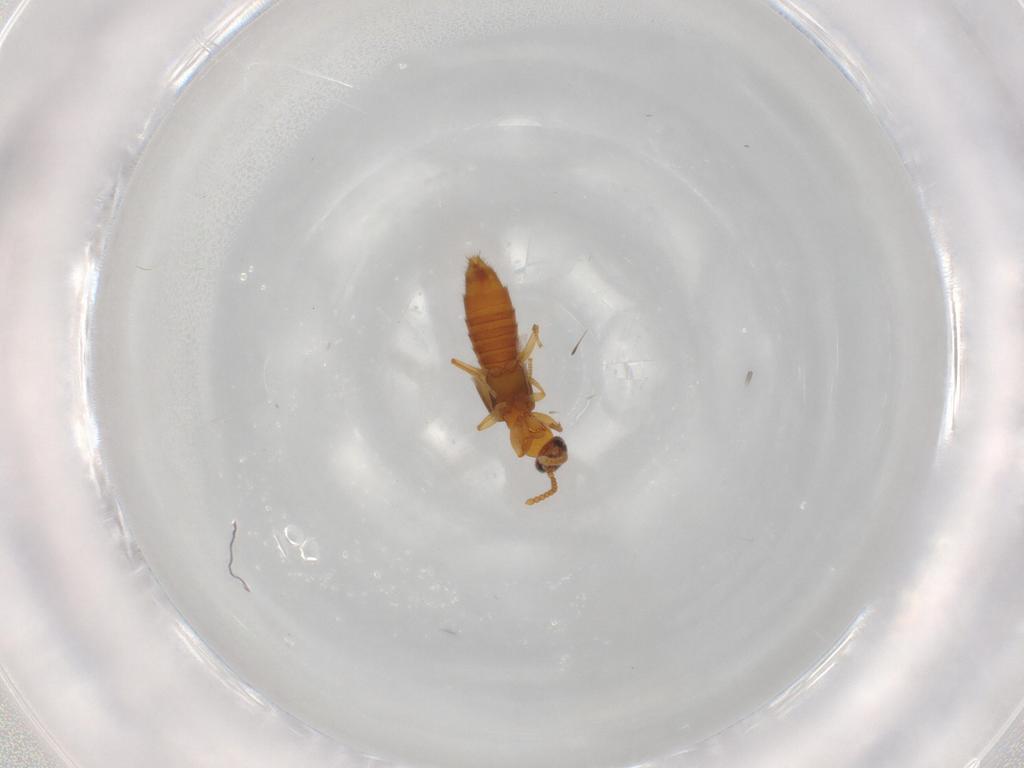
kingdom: Animalia
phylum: Arthropoda
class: Insecta
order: Coleoptera
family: Staphylinidae
